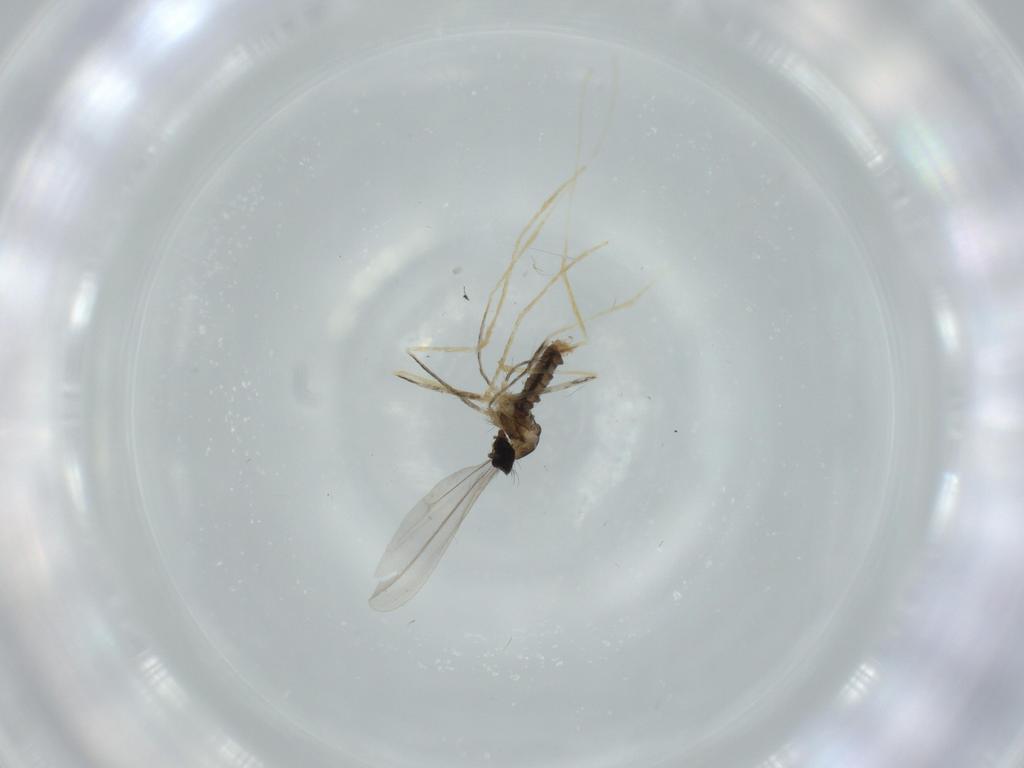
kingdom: Animalia
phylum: Arthropoda
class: Insecta
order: Diptera
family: Cecidomyiidae
